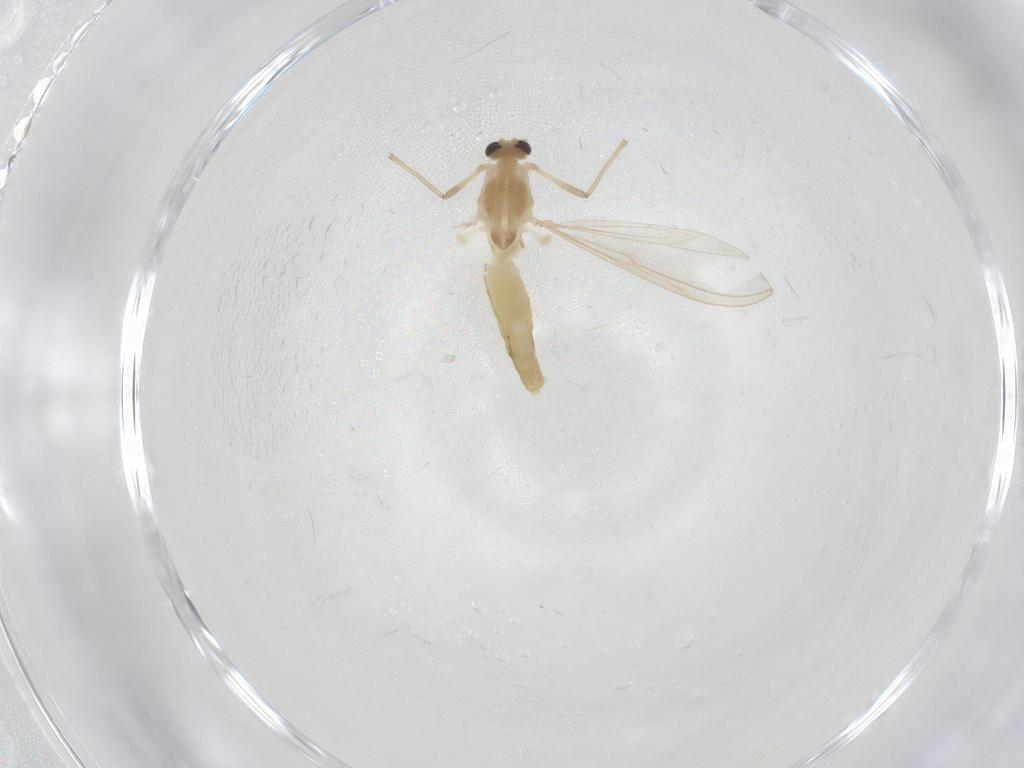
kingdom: Animalia
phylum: Arthropoda
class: Insecta
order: Diptera
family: Chironomidae
